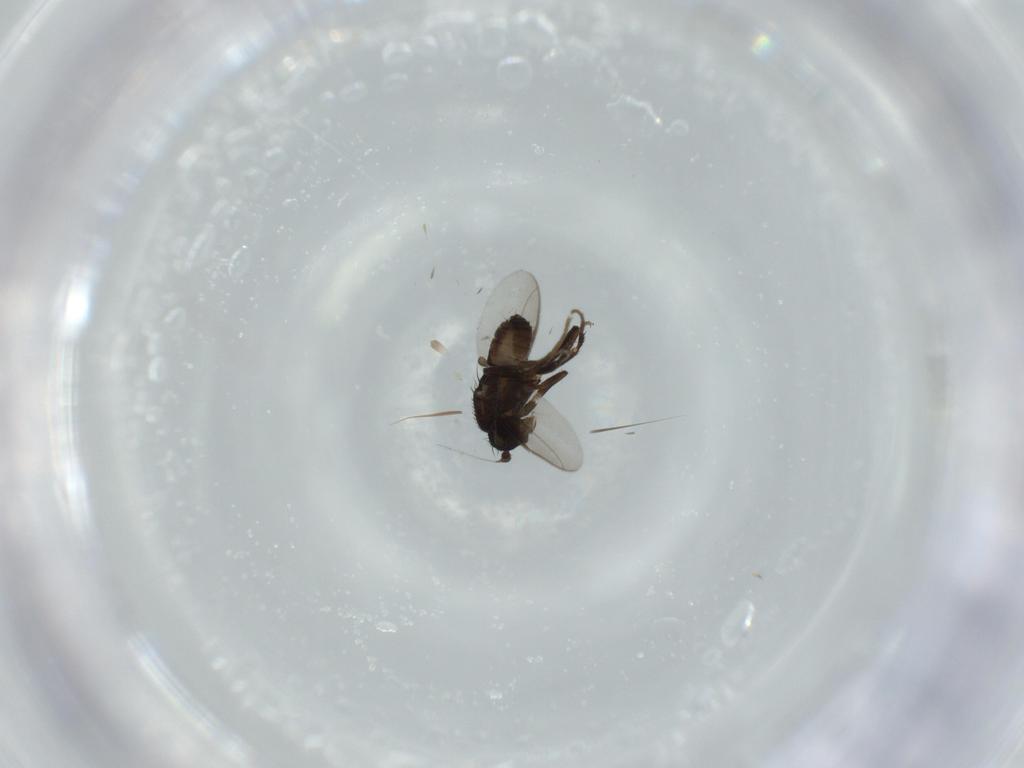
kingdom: Animalia
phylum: Arthropoda
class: Insecta
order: Diptera
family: Sphaeroceridae
